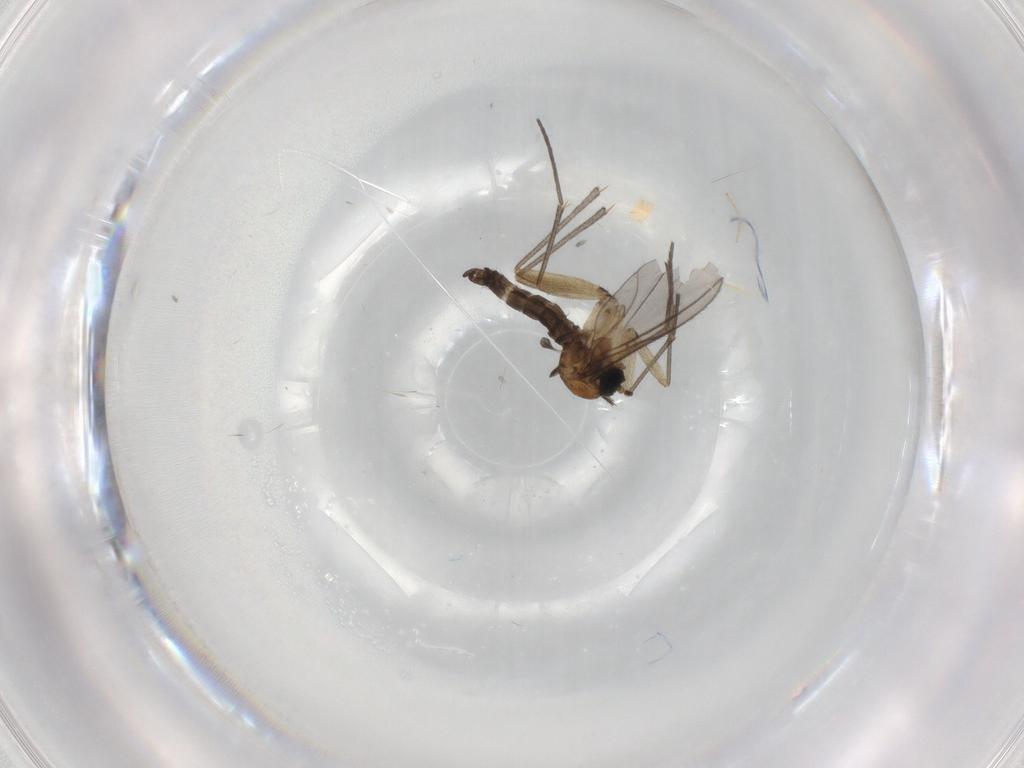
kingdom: Animalia
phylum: Arthropoda
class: Insecta
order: Diptera
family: Sciaridae
